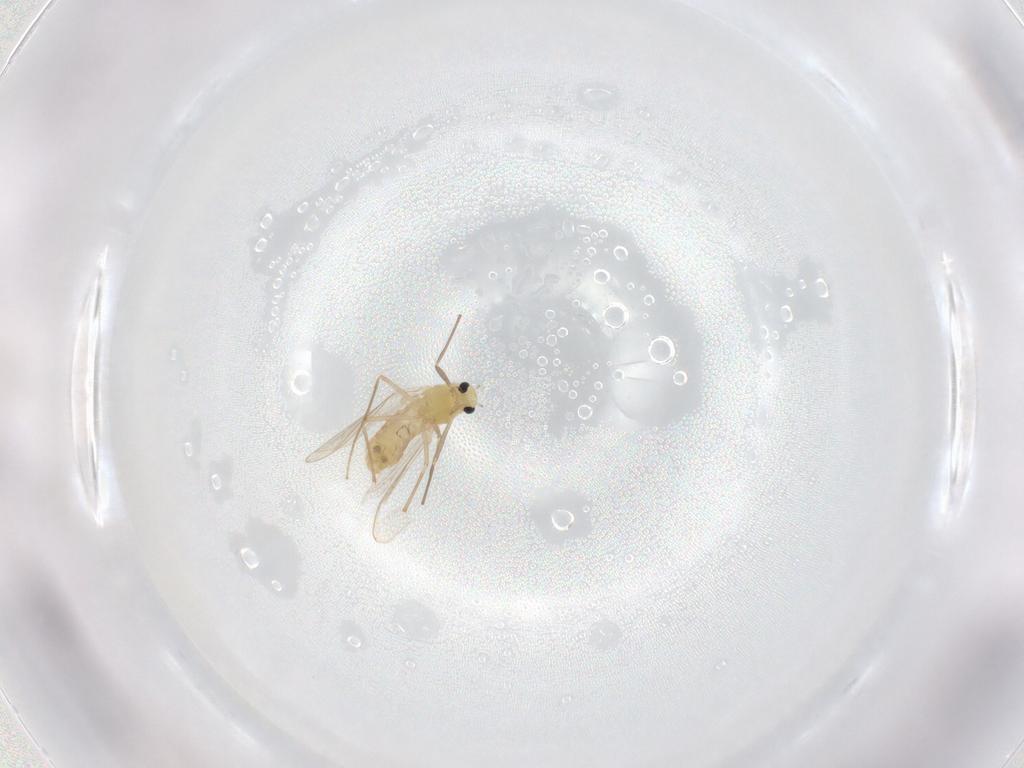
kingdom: Animalia
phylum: Arthropoda
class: Insecta
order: Diptera
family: Chironomidae
